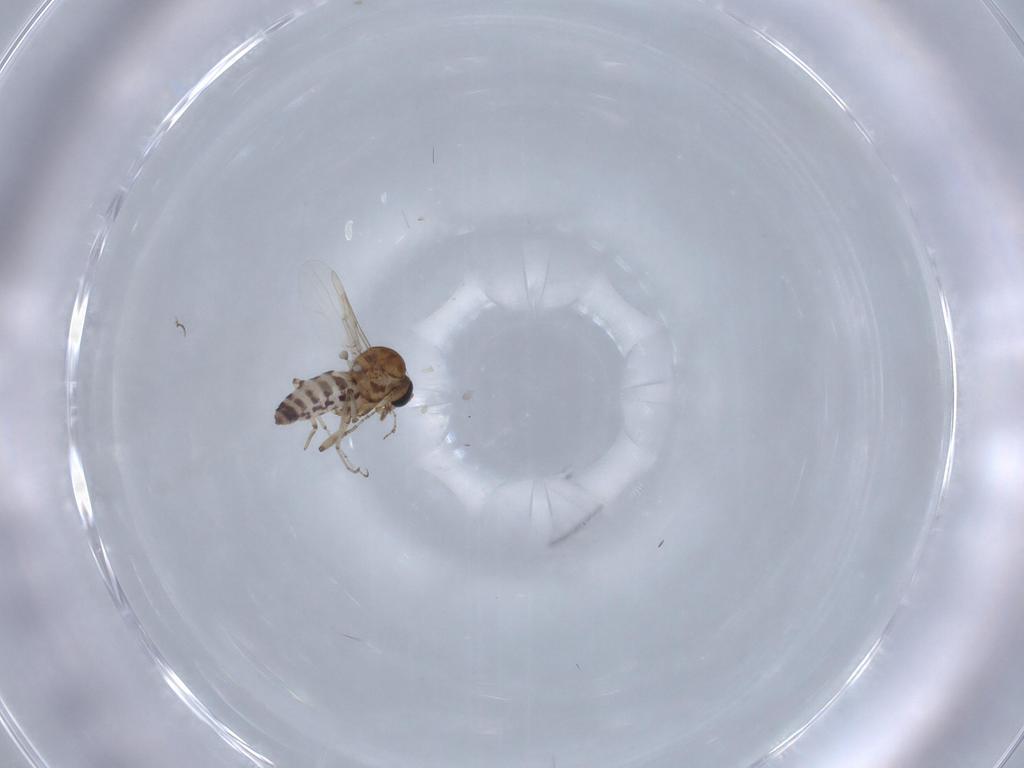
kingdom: Animalia
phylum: Arthropoda
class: Insecta
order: Diptera
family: Ceratopogonidae
